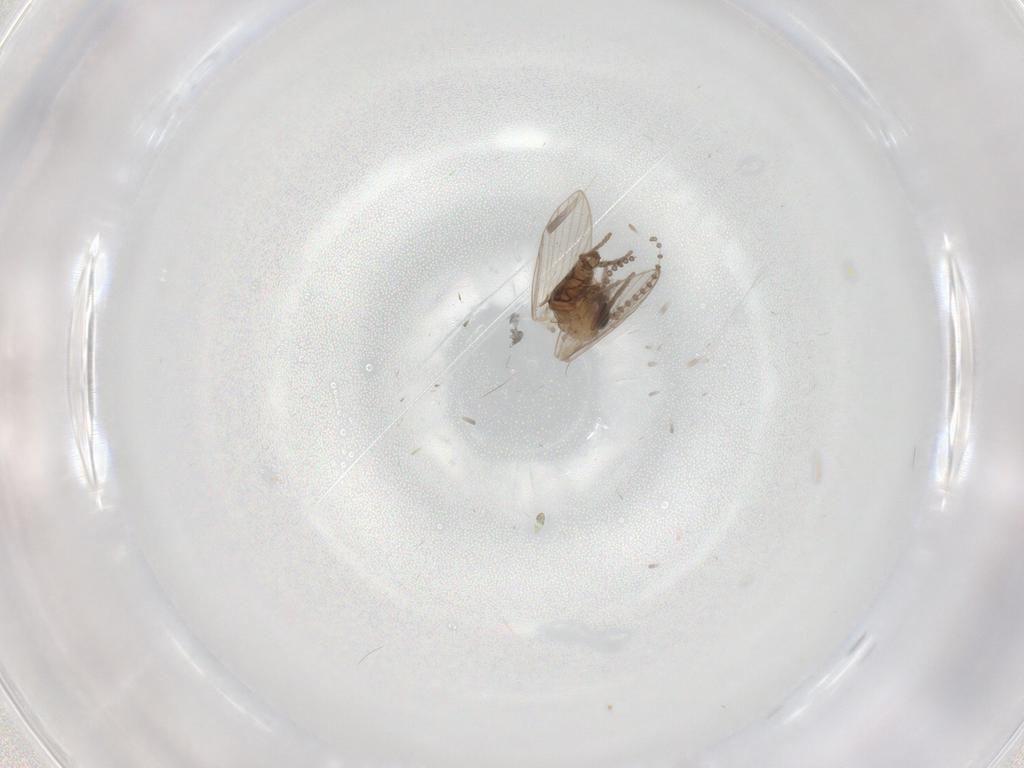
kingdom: Animalia
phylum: Arthropoda
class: Insecta
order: Diptera
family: Psychodidae
